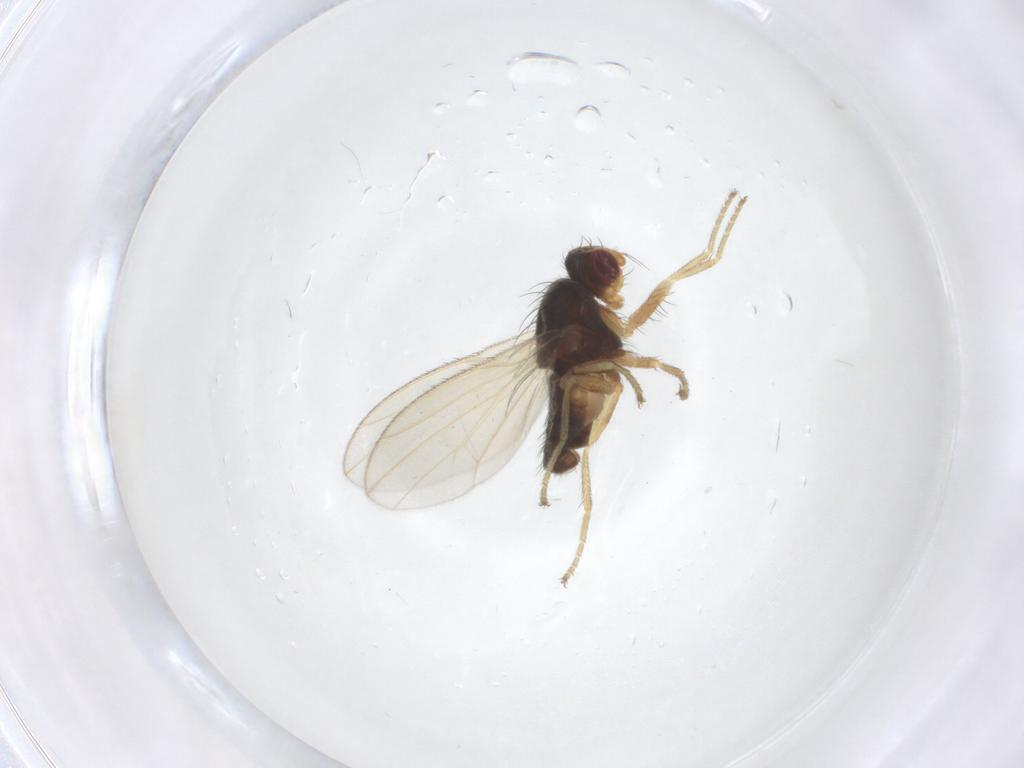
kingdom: Animalia
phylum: Arthropoda
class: Insecta
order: Diptera
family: Heleomyzidae
